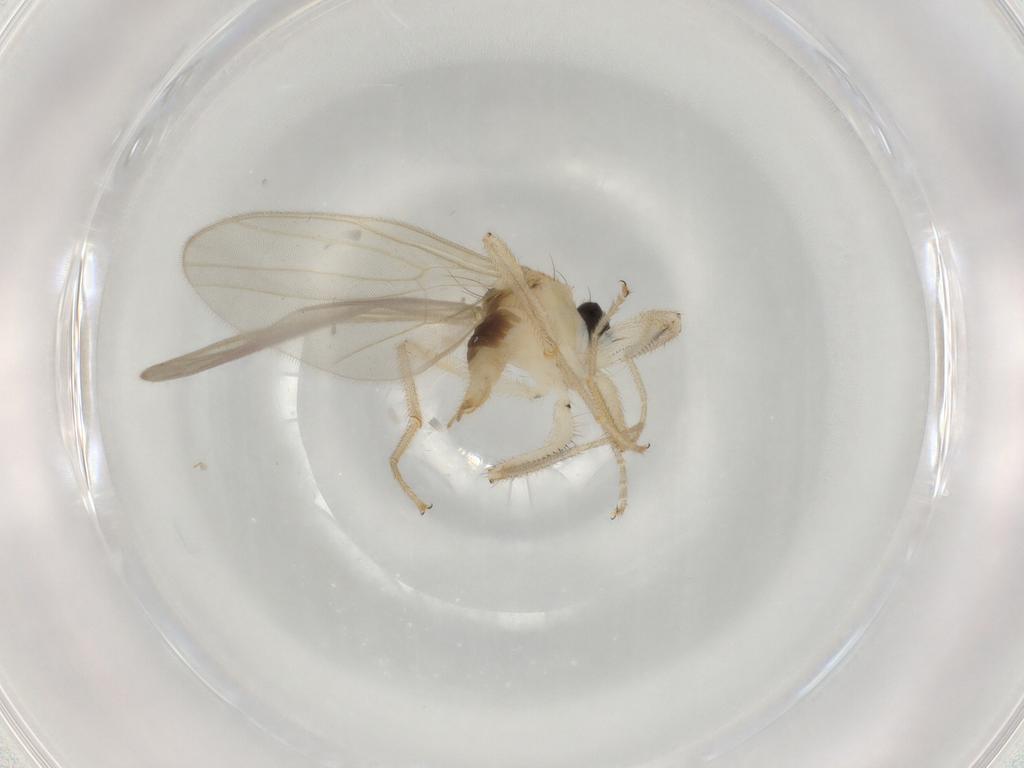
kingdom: Animalia
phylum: Arthropoda
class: Insecta
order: Diptera
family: Hybotidae
